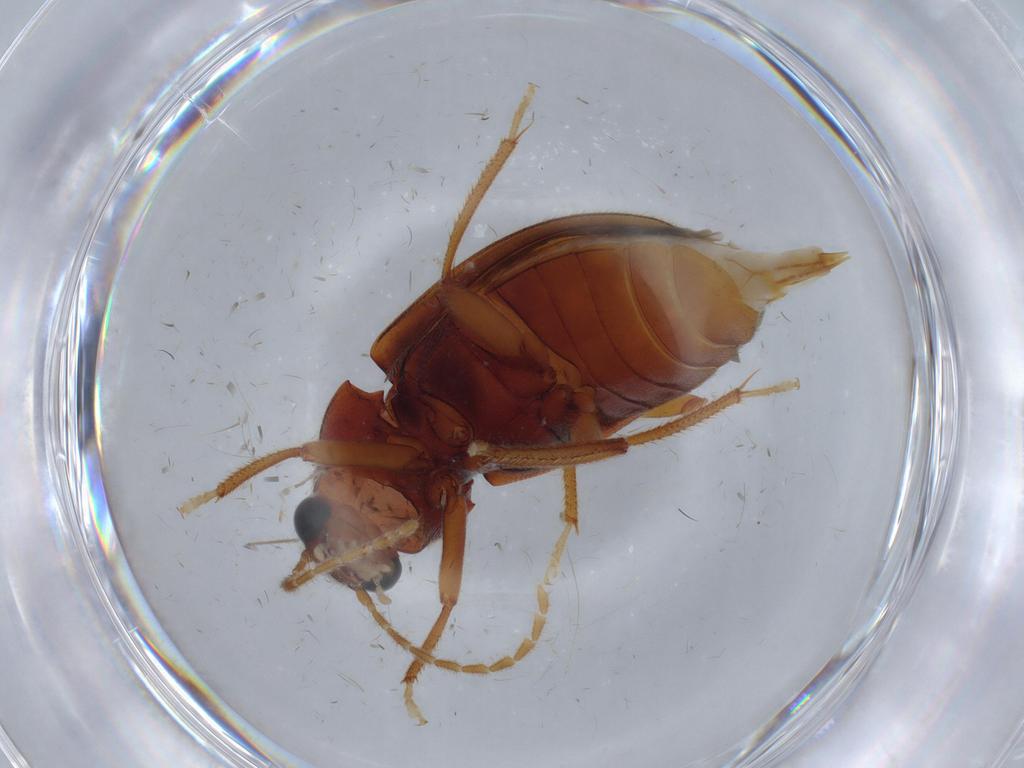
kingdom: Animalia
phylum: Arthropoda
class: Insecta
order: Coleoptera
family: Ptilodactylidae
